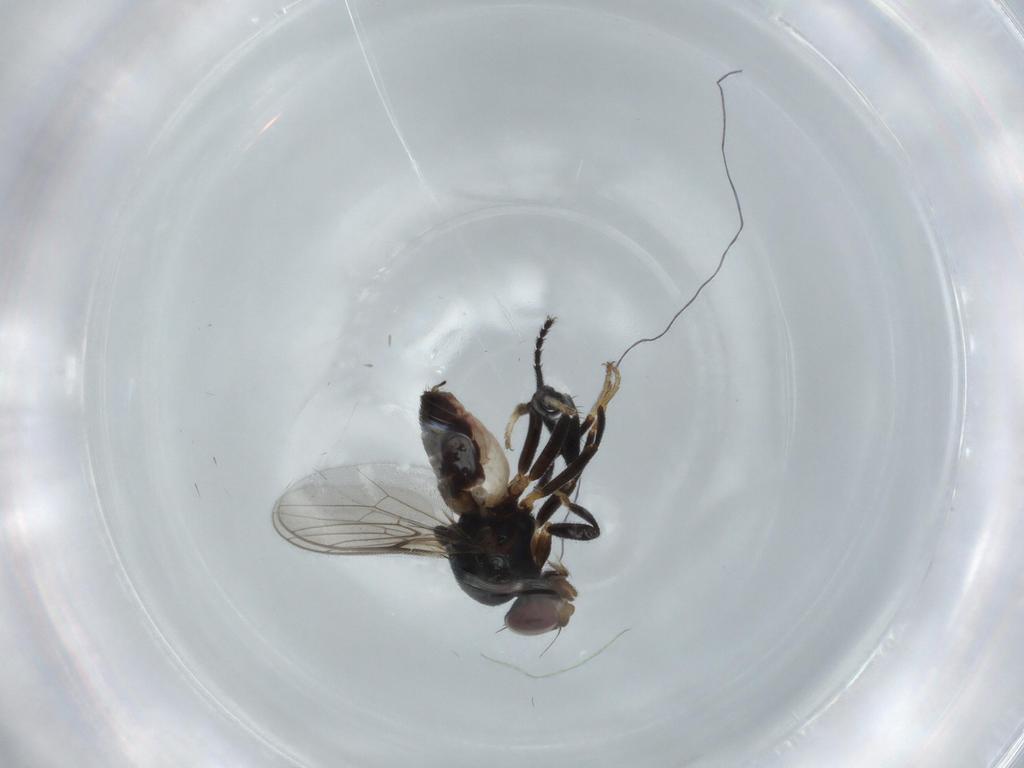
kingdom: Animalia
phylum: Arthropoda
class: Insecta
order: Diptera
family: Chloropidae
